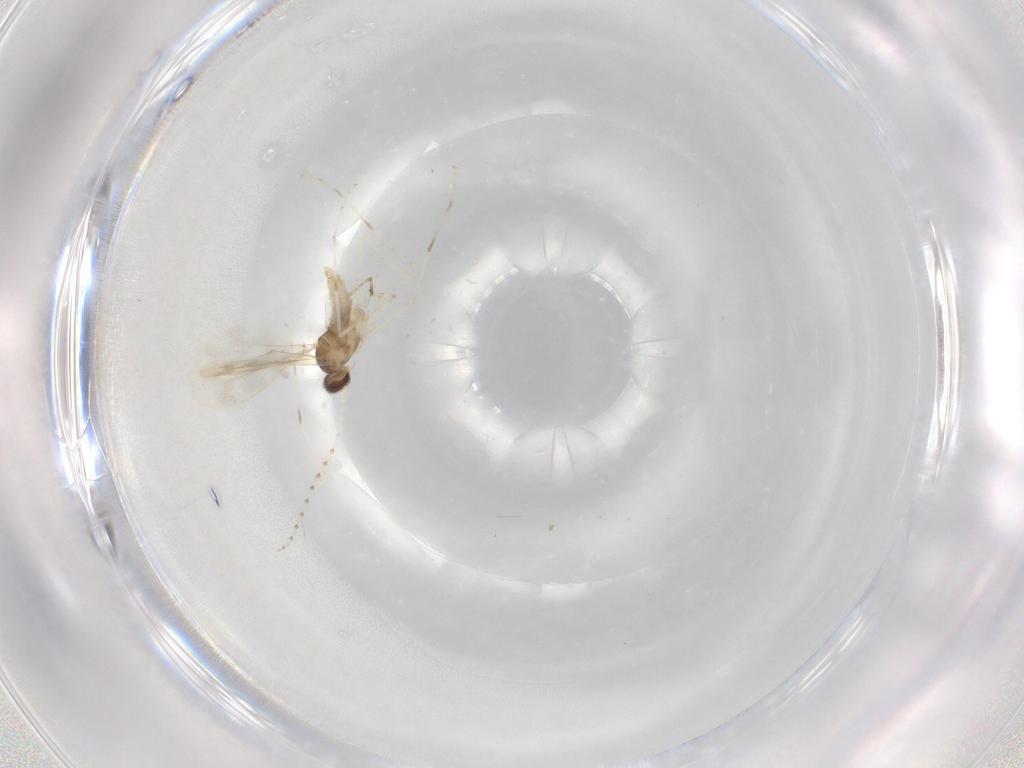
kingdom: Animalia
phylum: Arthropoda
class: Insecta
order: Diptera
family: Cecidomyiidae
